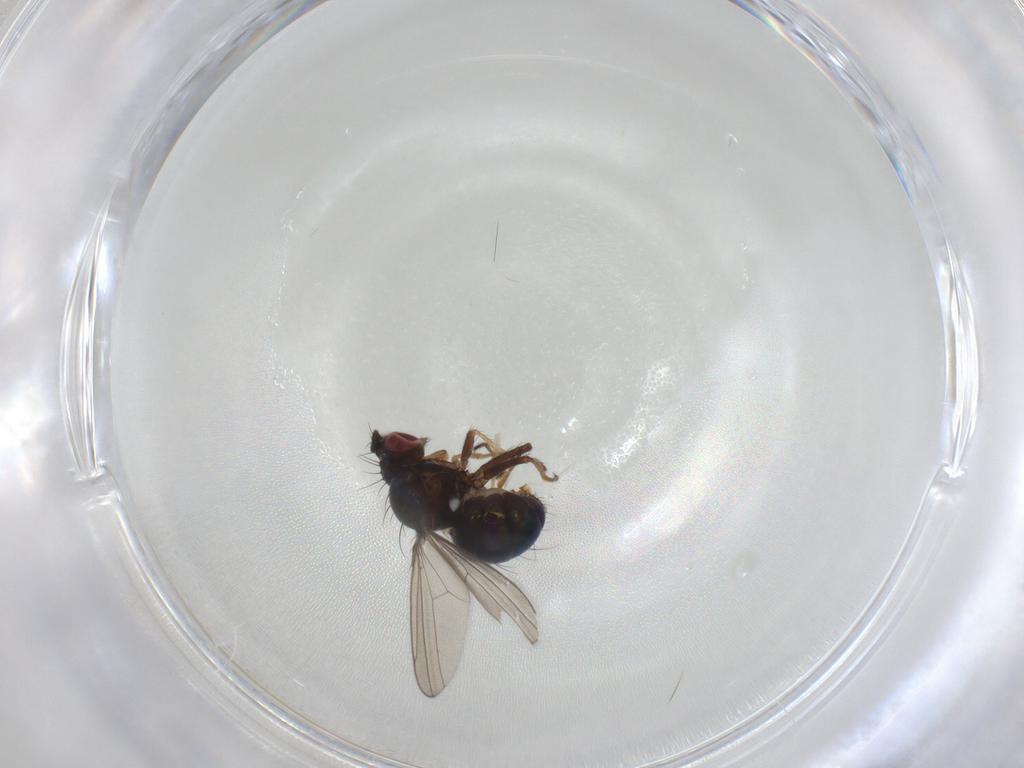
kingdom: Animalia
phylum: Arthropoda
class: Insecta
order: Diptera
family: Ephydridae
